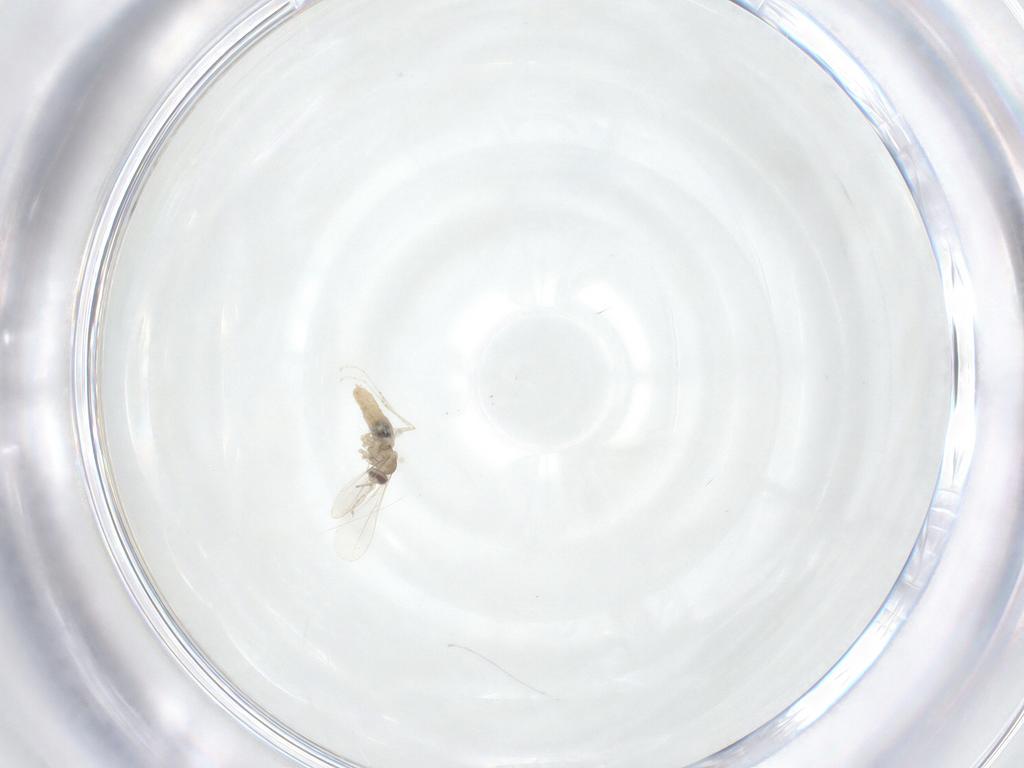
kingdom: Animalia
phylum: Arthropoda
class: Insecta
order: Diptera
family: Cecidomyiidae
